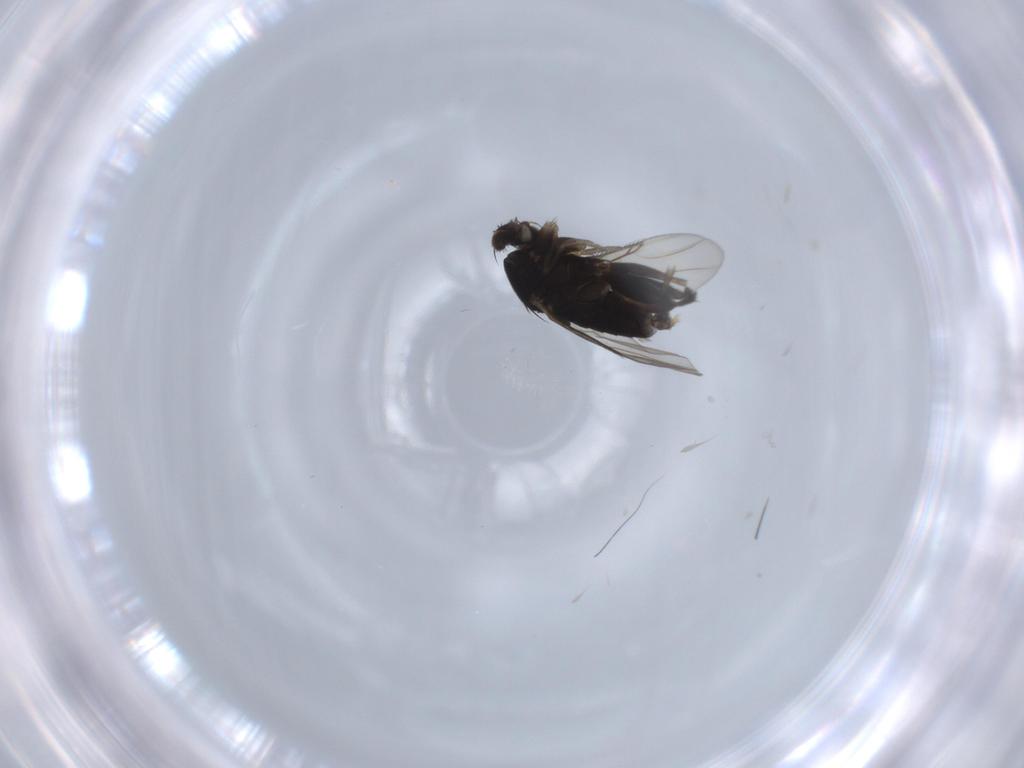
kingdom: Animalia
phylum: Arthropoda
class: Insecta
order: Diptera
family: Phoridae
